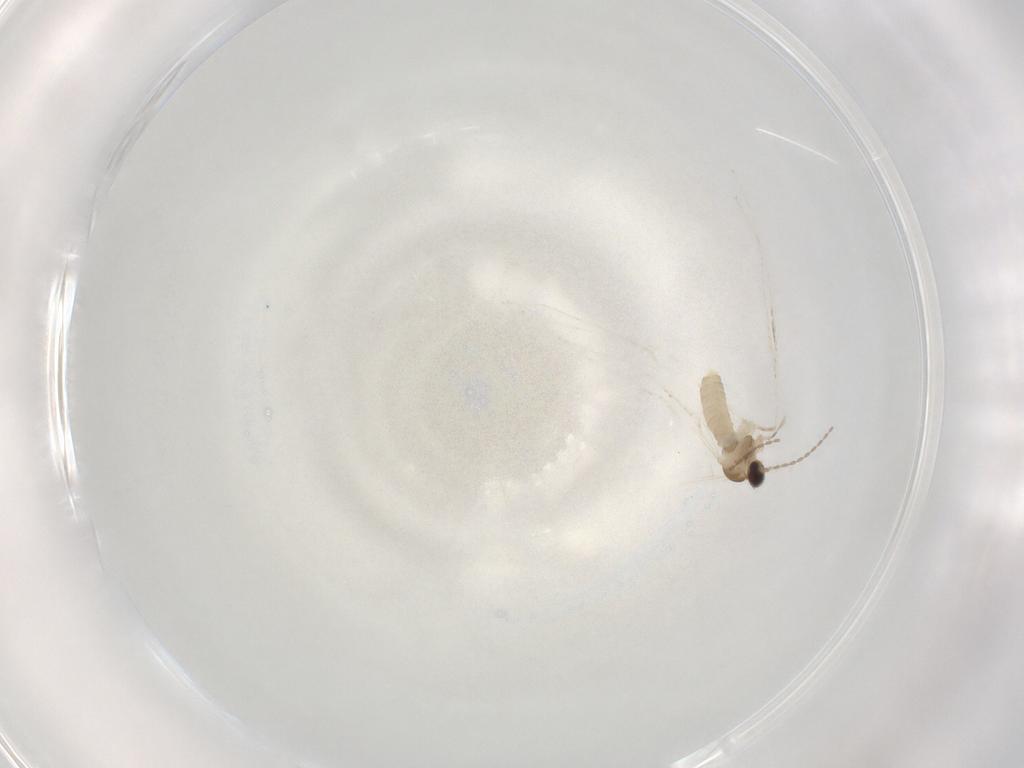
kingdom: Animalia
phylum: Arthropoda
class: Insecta
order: Diptera
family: Cecidomyiidae
